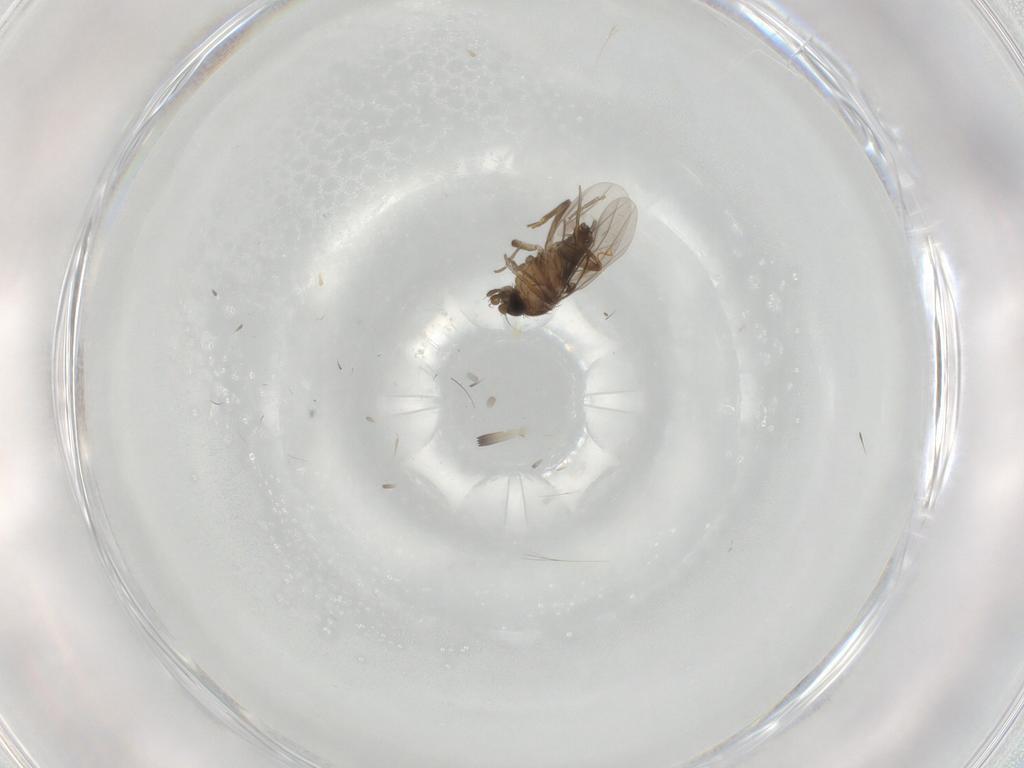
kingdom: Animalia
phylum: Arthropoda
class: Insecta
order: Diptera
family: Phoridae
